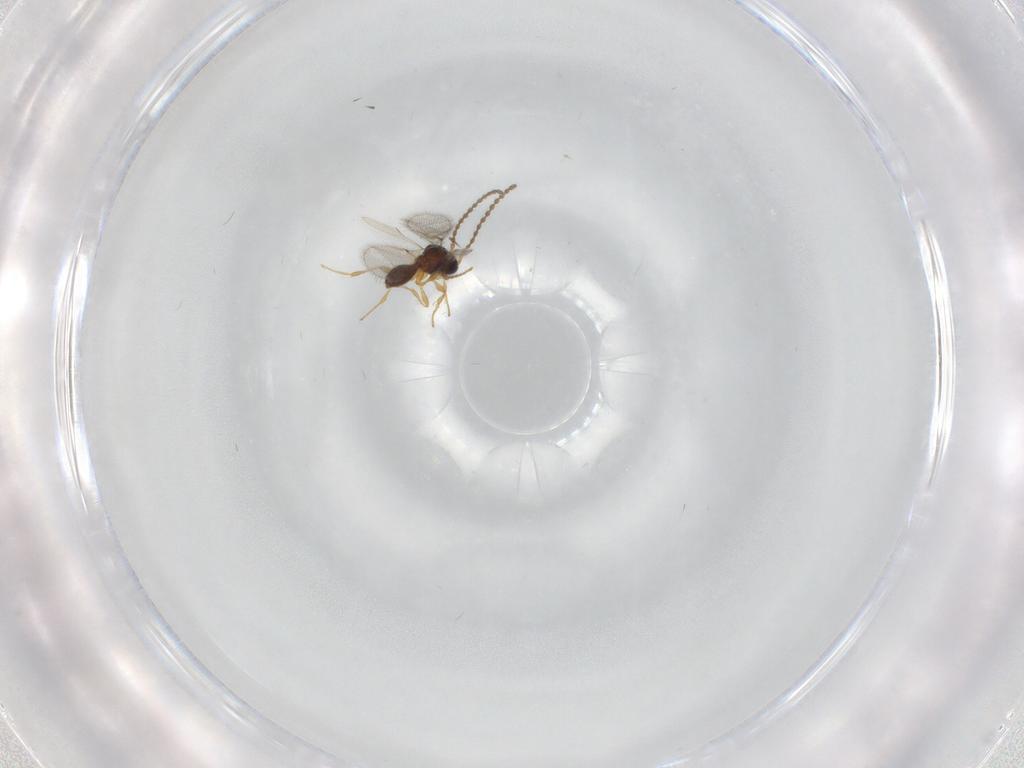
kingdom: Animalia
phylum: Arthropoda
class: Insecta
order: Hymenoptera
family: Diapriidae
